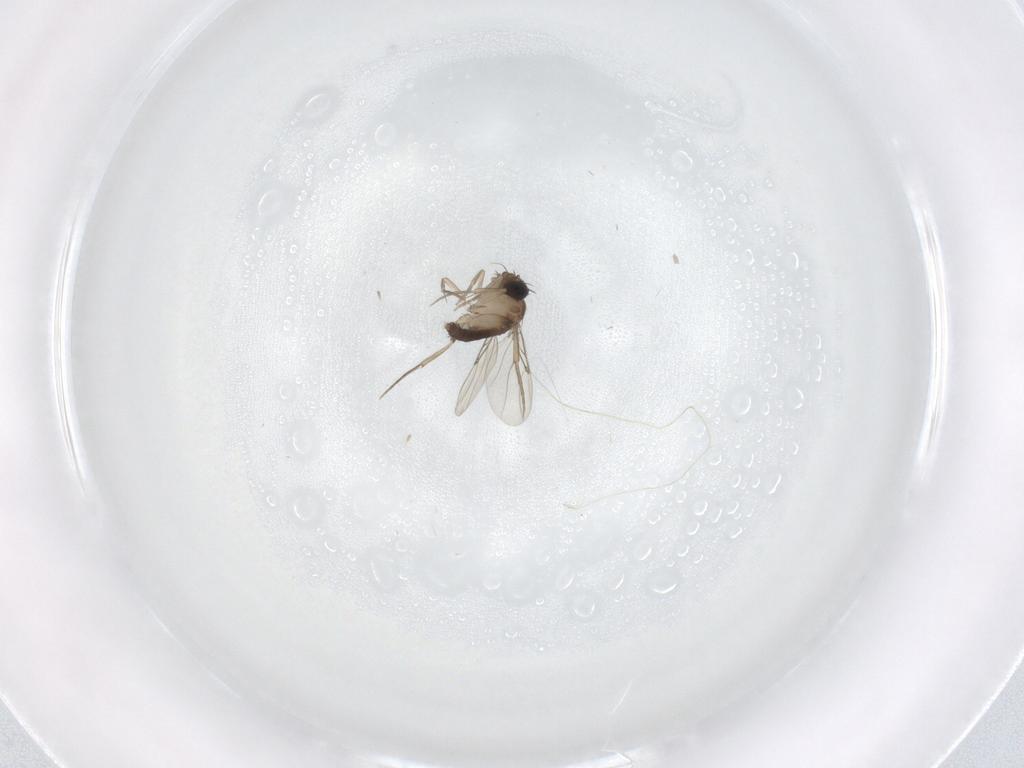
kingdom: Animalia
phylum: Arthropoda
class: Insecta
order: Diptera
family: Phoridae
